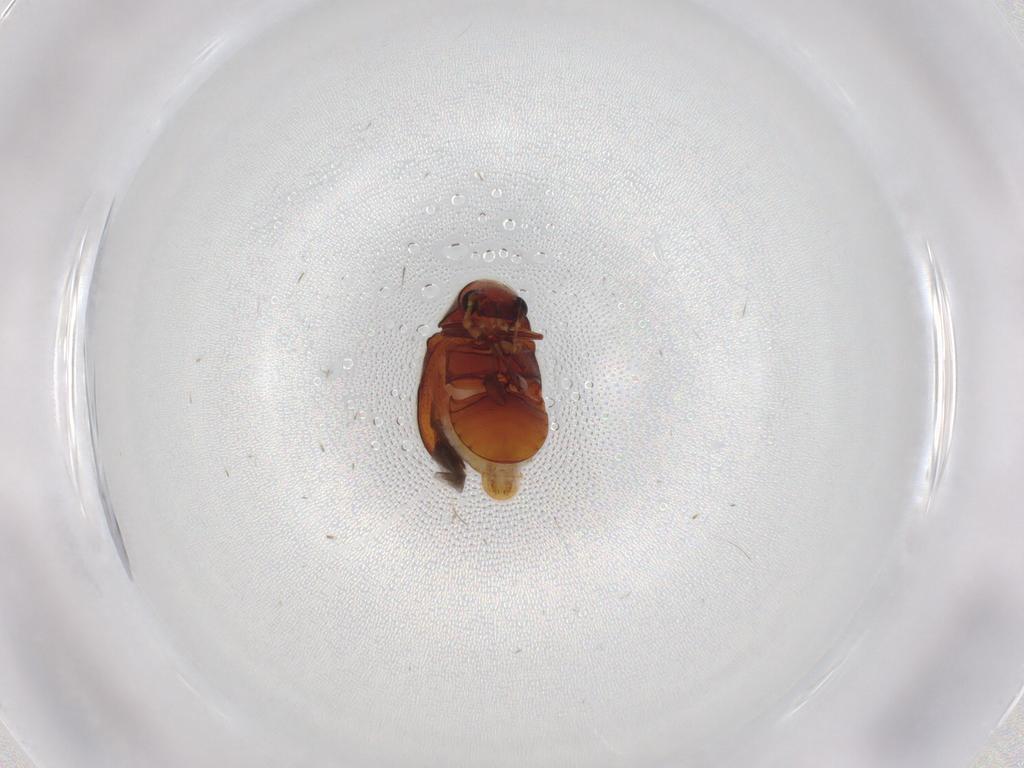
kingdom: Animalia
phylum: Arthropoda
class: Insecta
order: Coleoptera
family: Ptinidae
